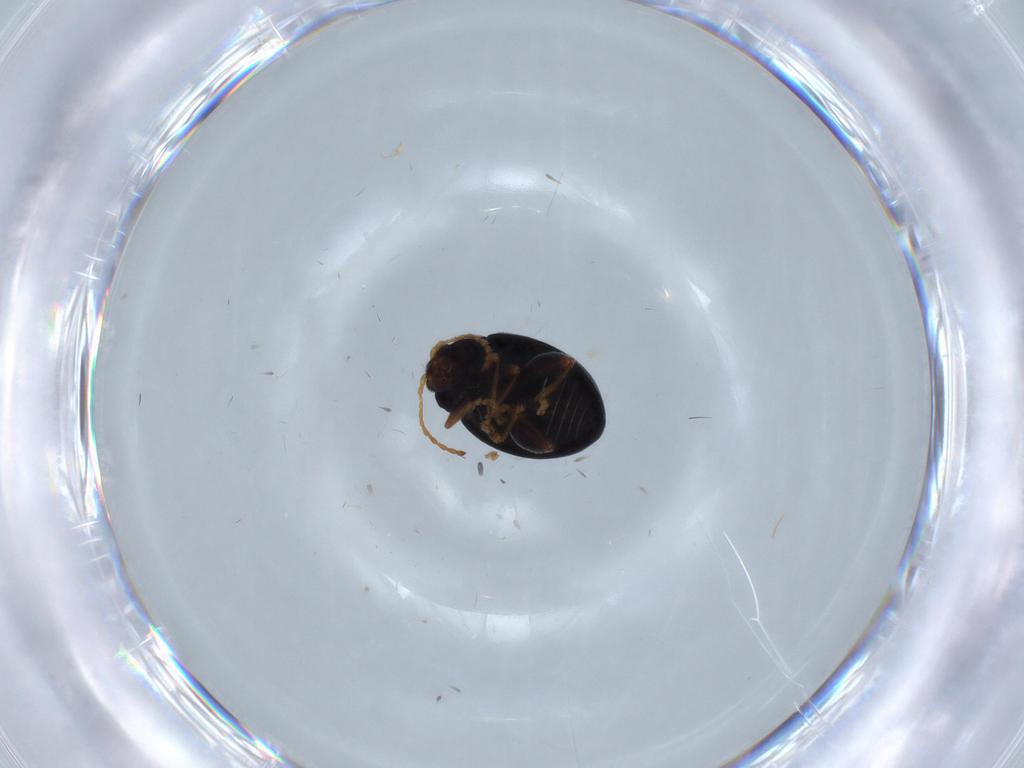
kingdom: Animalia
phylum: Arthropoda
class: Insecta
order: Coleoptera
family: Chrysomelidae
